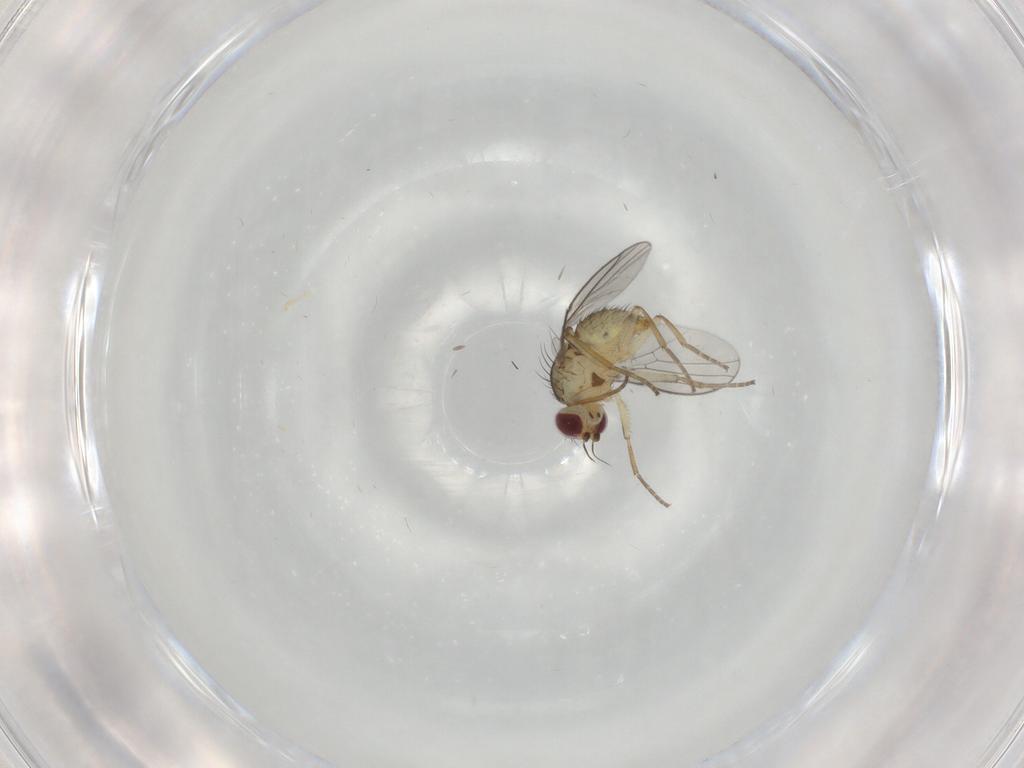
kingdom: Animalia
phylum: Arthropoda
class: Insecta
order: Diptera
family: Agromyzidae
